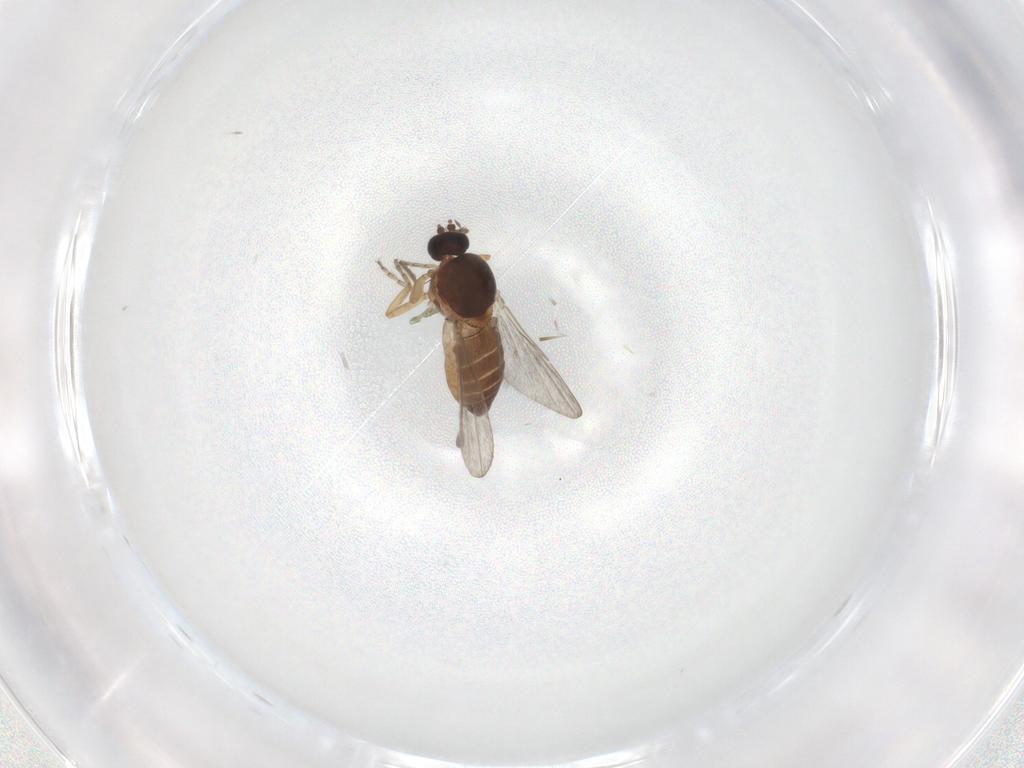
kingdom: Animalia
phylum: Arthropoda
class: Insecta
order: Diptera
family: Ceratopogonidae
